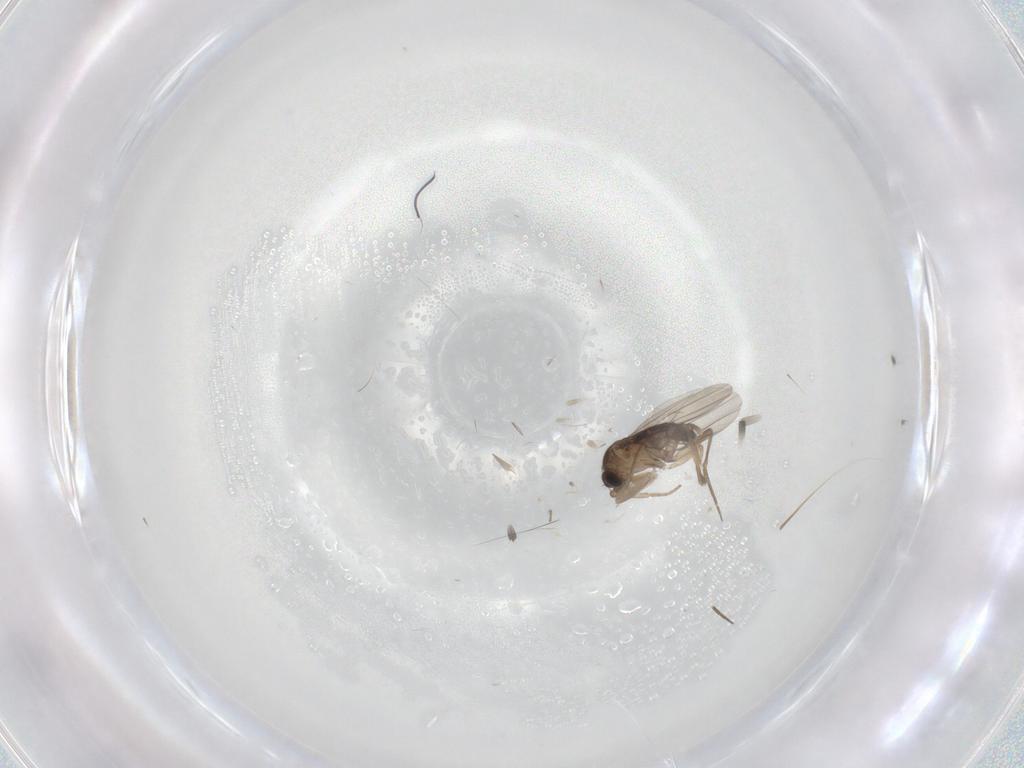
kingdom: Animalia
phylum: Arthropoda
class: Insecta
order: Diptera
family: Phoridae
